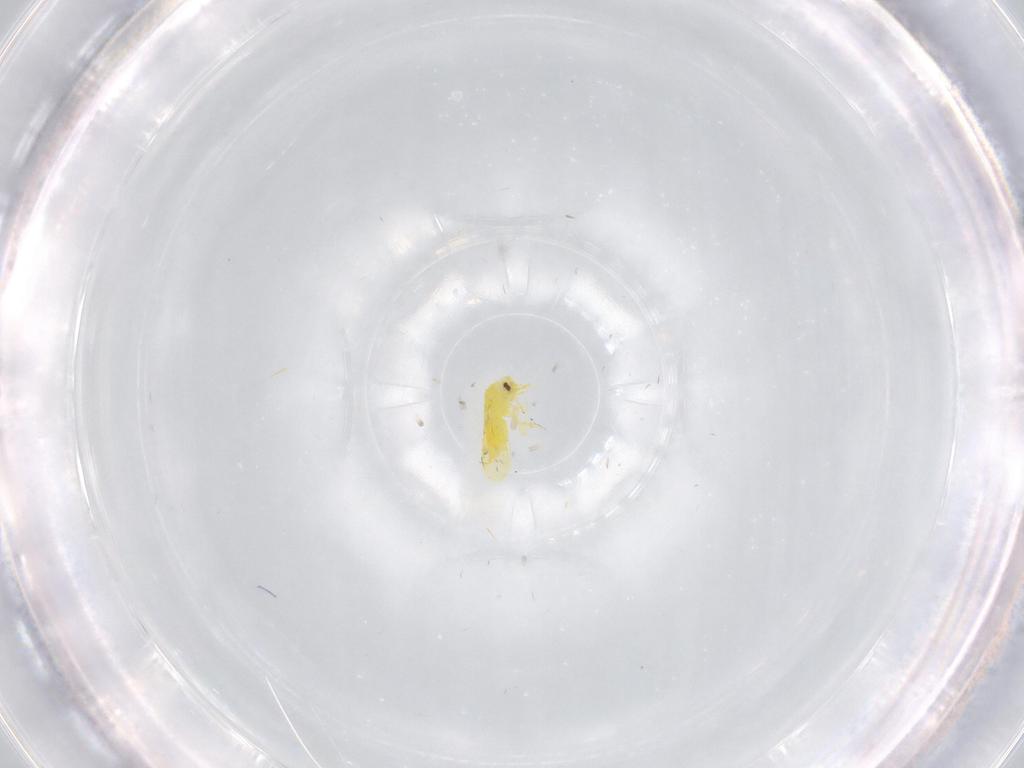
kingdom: Animalia
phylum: Arthropoda
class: Insecta
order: Hemiptera
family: Aleyrodidae
